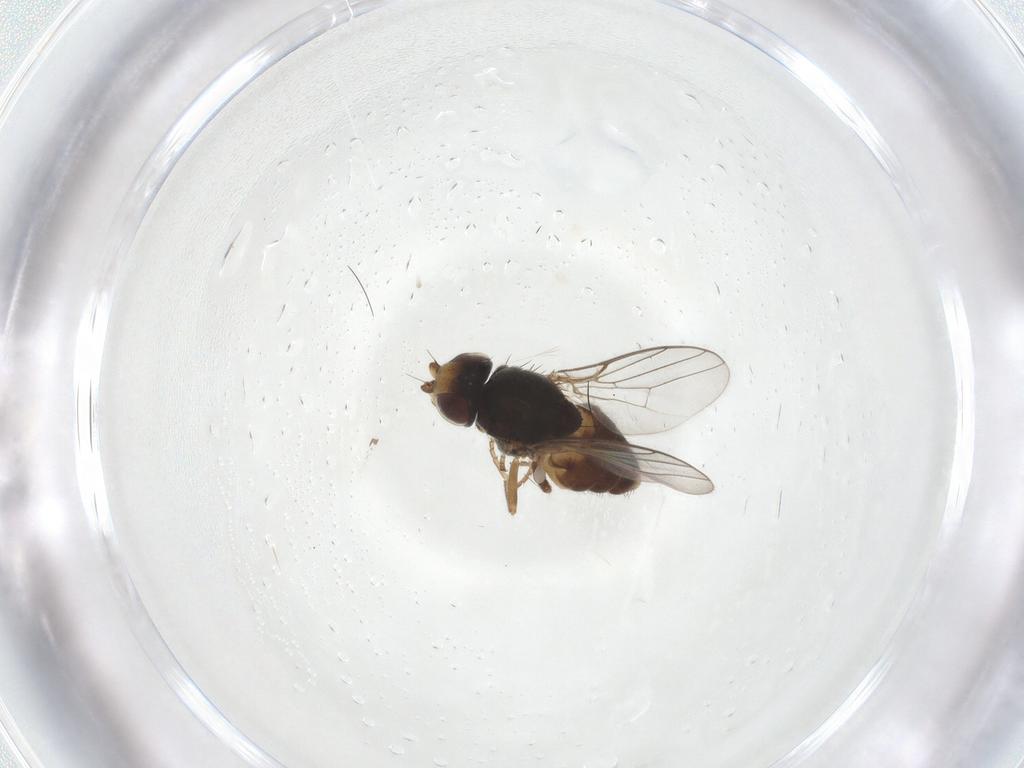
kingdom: Animalia
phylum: Arthropoda
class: Insecta
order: Diptera
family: Chloropidae
